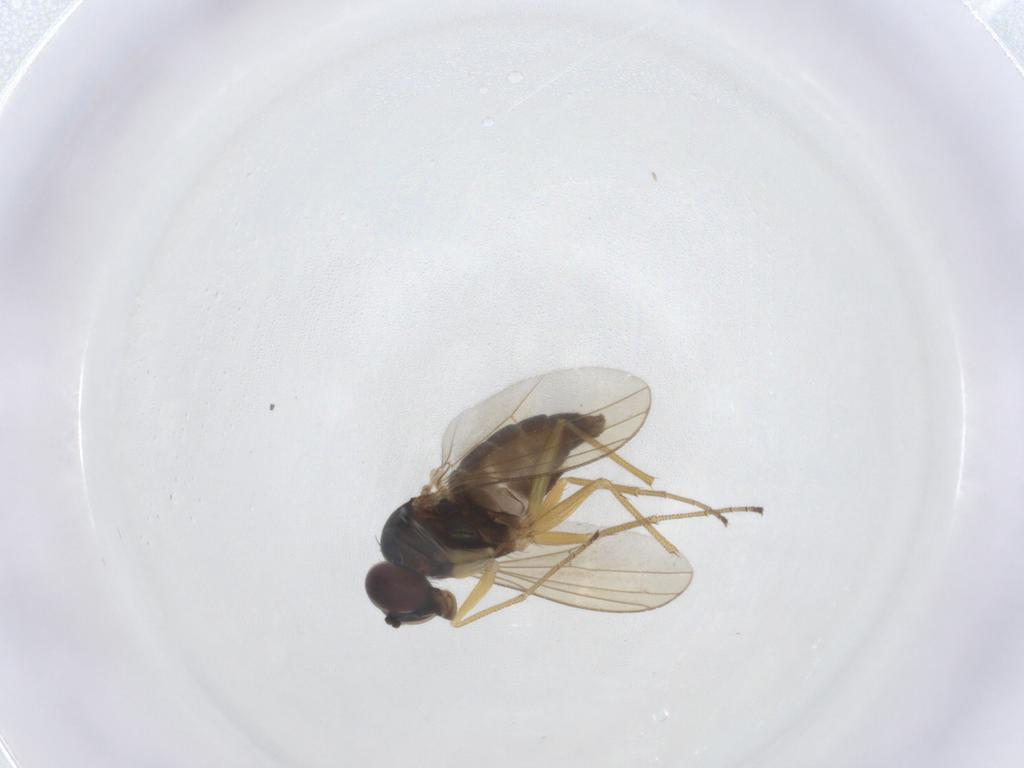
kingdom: Animalia
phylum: Arthropoda
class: Insecta
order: Diptera
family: Dolichopodidae
